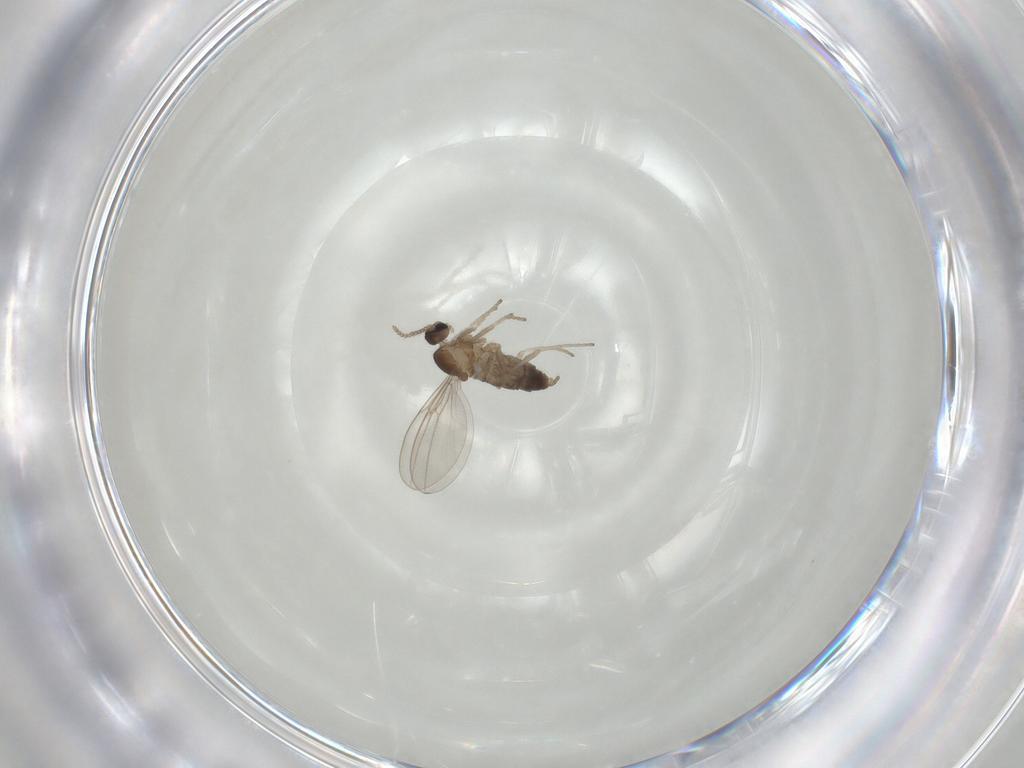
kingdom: Animalia
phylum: Arthropoda
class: Insecta
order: Diptera
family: Cecidomyiidae
